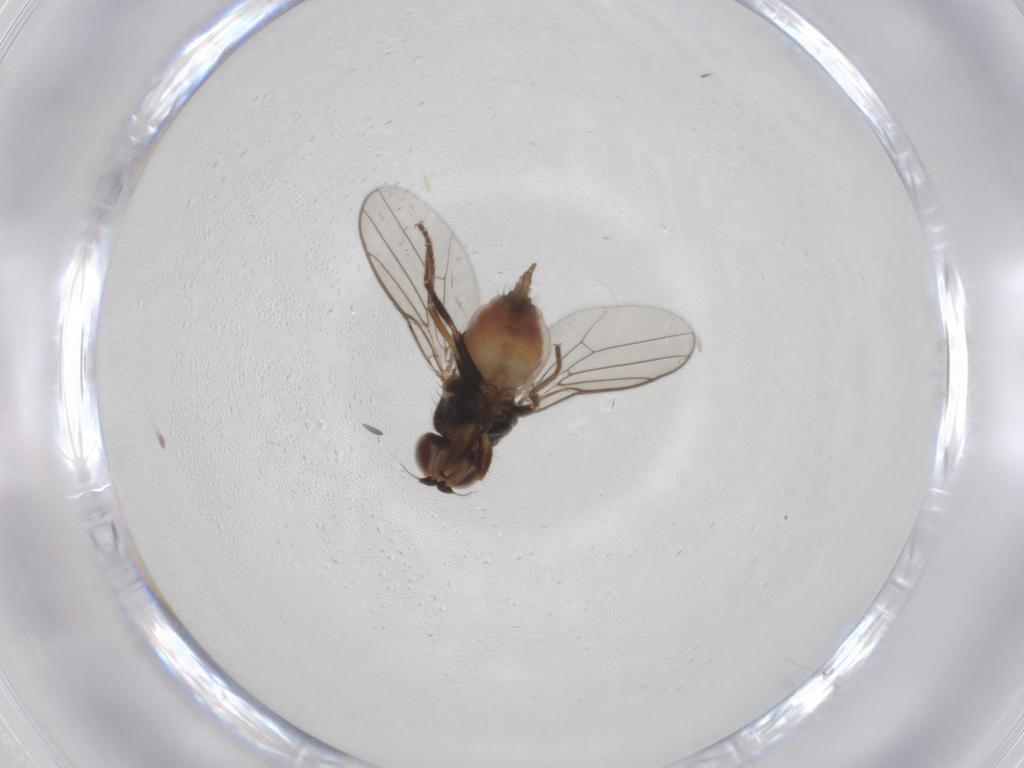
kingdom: Animalia
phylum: Arthropoda
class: Insecta
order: Diptera
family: Chloropidae
